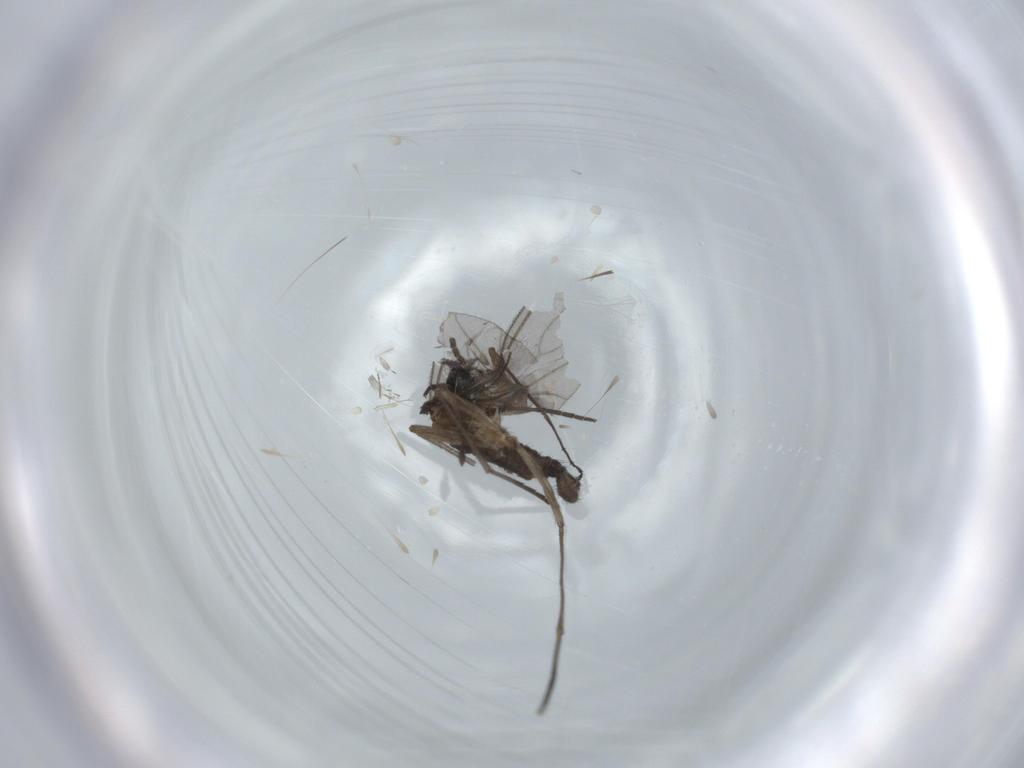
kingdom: Animalia
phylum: Arthropoda
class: Insecta
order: Diptera
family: Sciaridae
